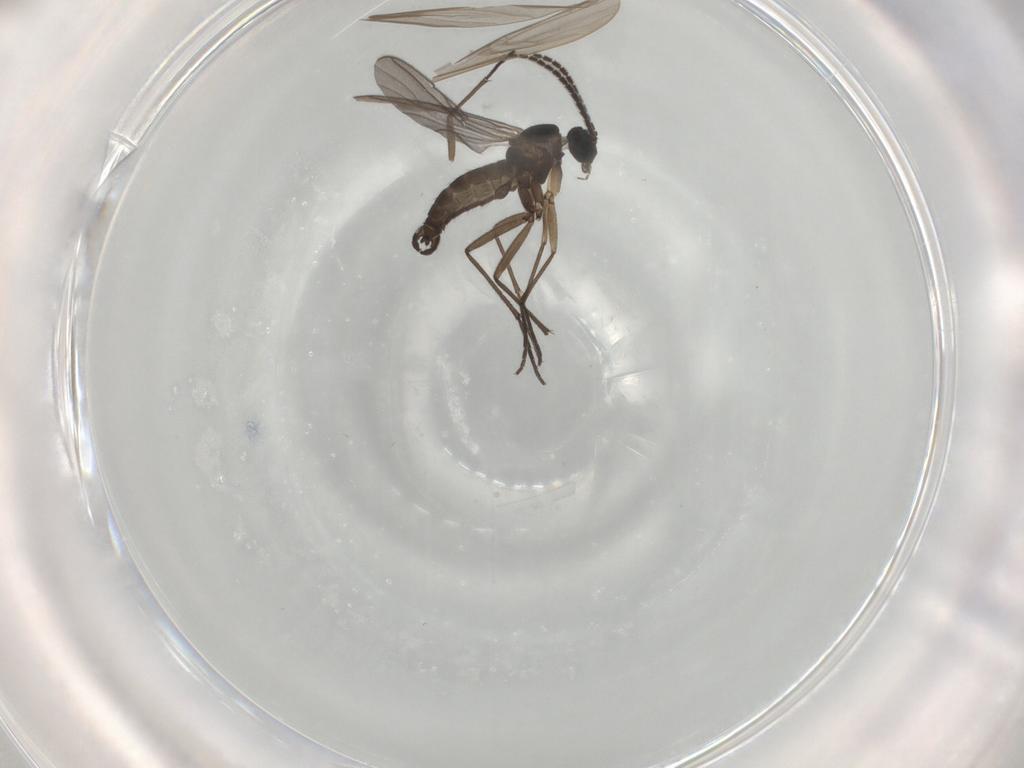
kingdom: Animalia
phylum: Arthropoda
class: Insecta
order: Diptera
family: Sciaridae
